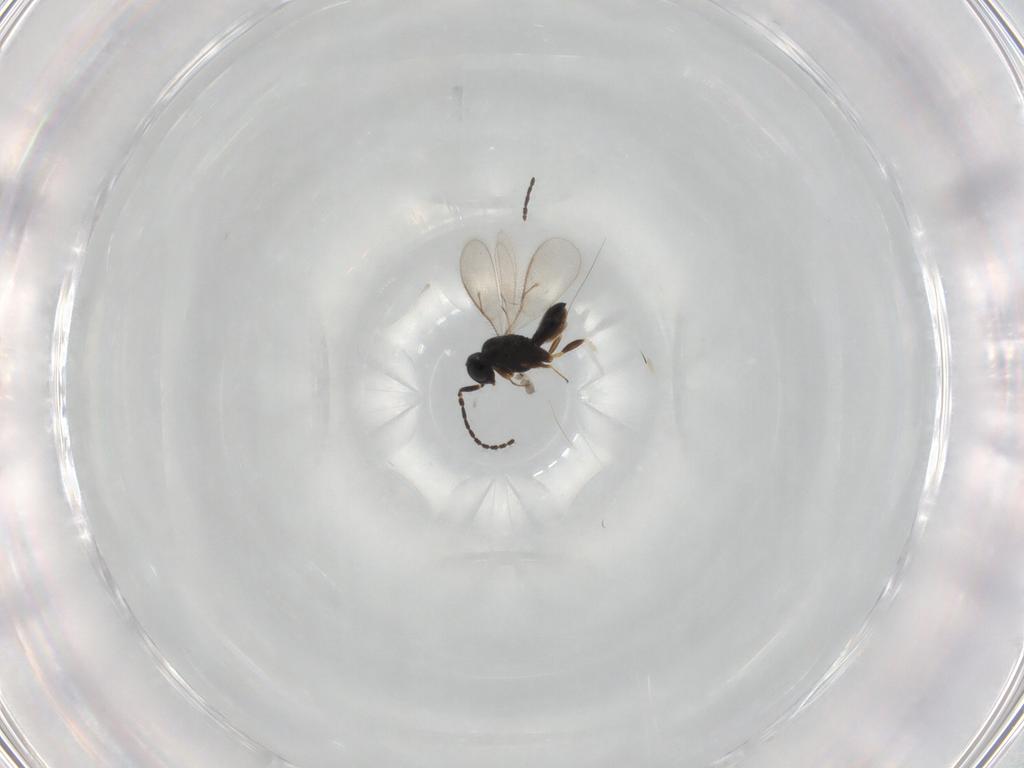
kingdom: Animalia
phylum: Arthropoda
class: Insecta
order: Hymenoptera
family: Scelionidae
